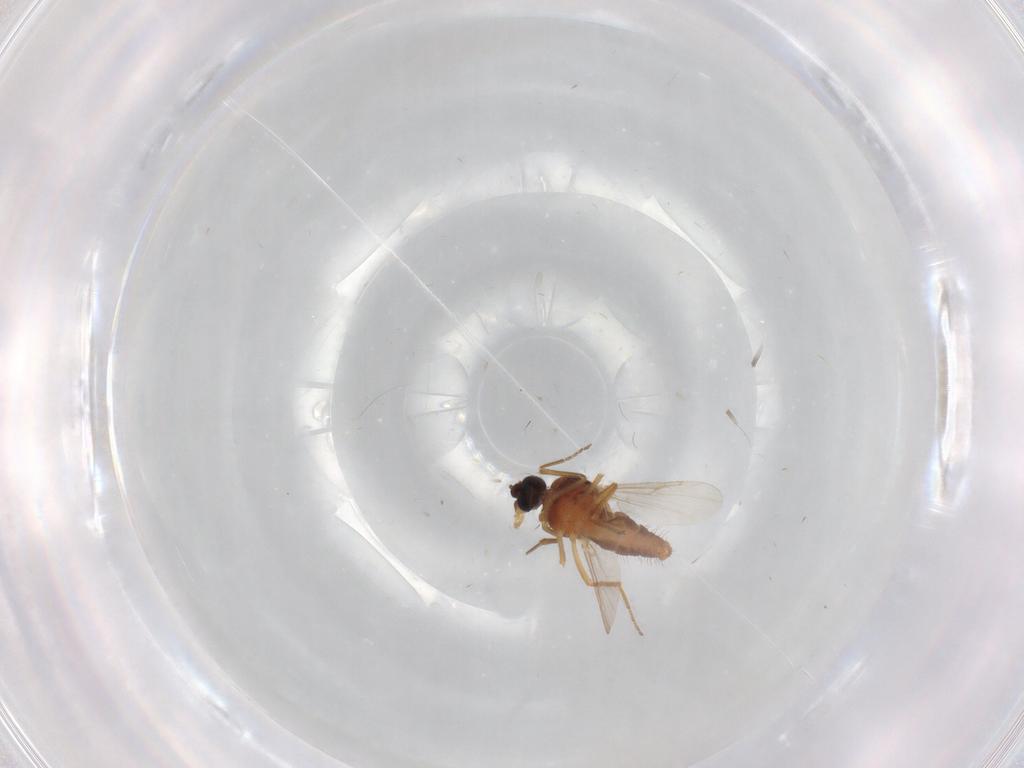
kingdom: Animalia
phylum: Arthropoda
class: Insecta
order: Diptera
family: Ceratopogonidae
